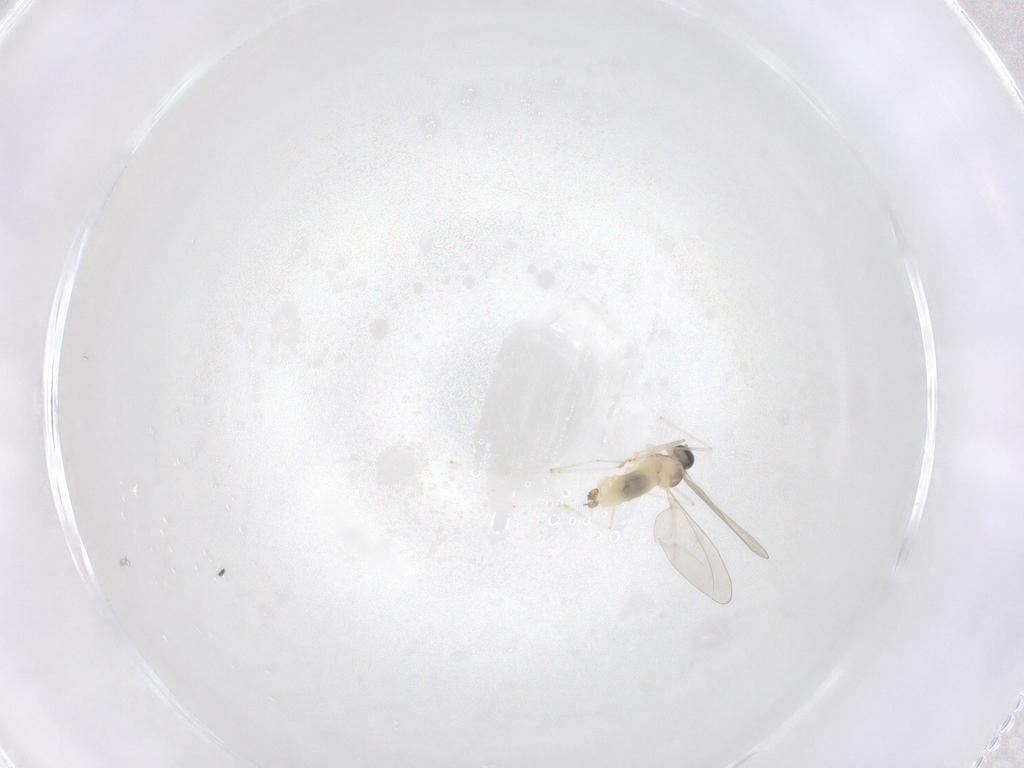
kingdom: Animalia
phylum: Arthropoda
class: Insecta
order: Diptera
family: Cecidomyiidae
